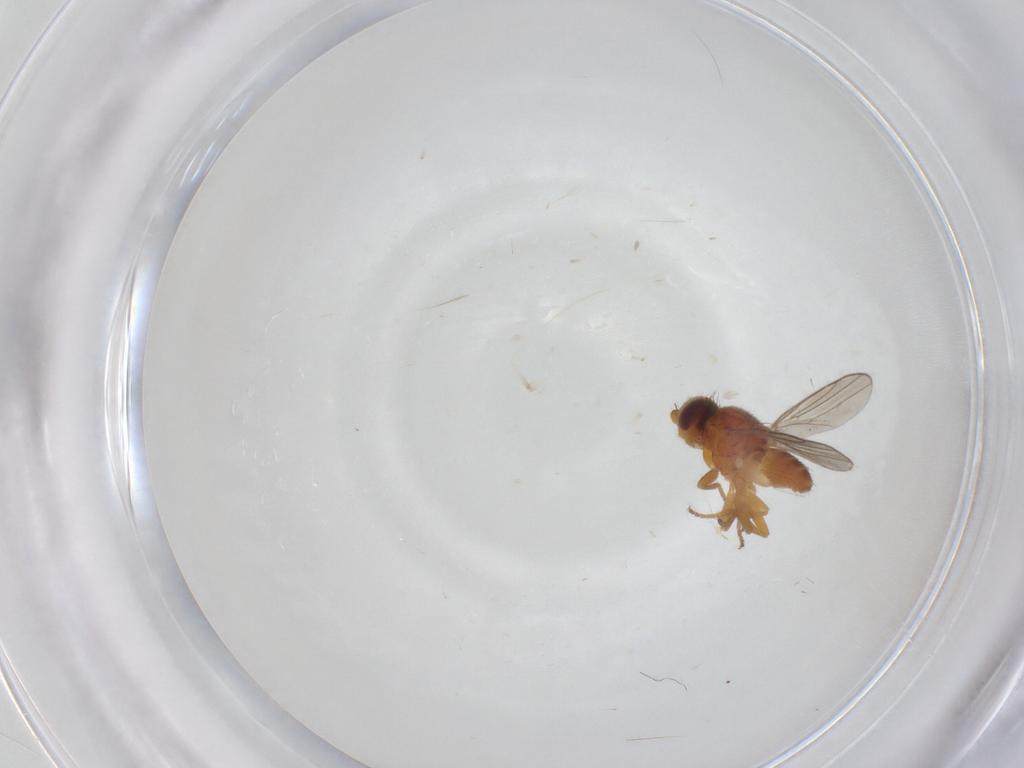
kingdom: Animalia
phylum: Arthropoda
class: Insecta
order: Diptera
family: Chloropidae
